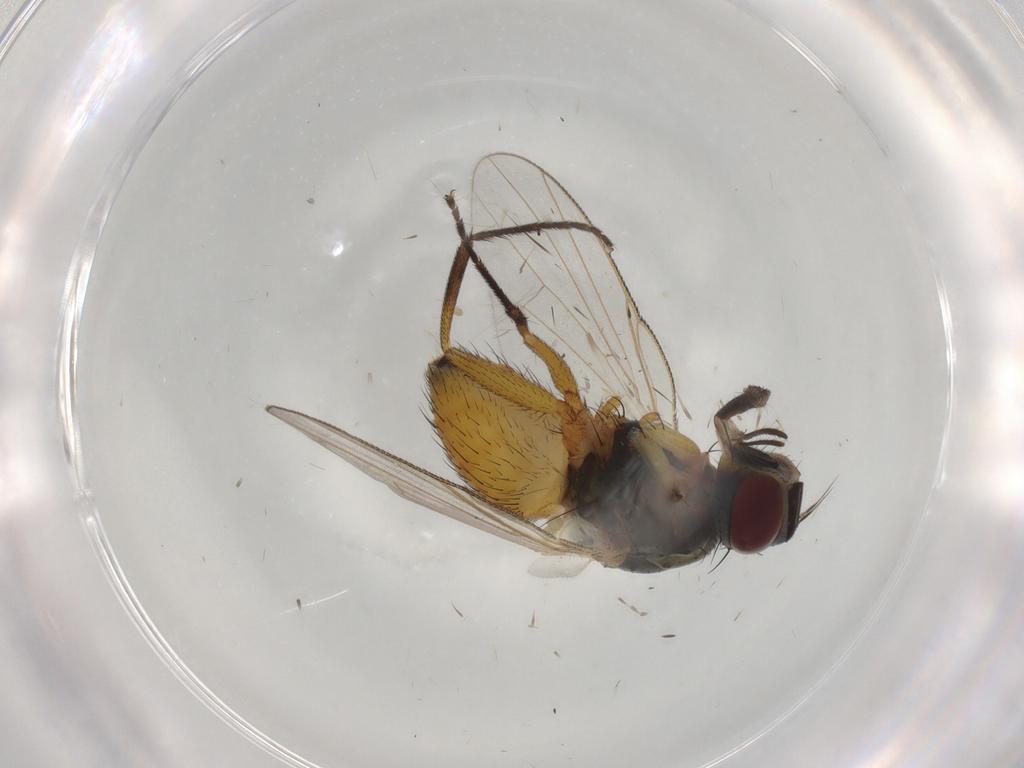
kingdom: Animalia
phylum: Arthropoda
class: Insecta
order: Diptera
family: Muscidae
